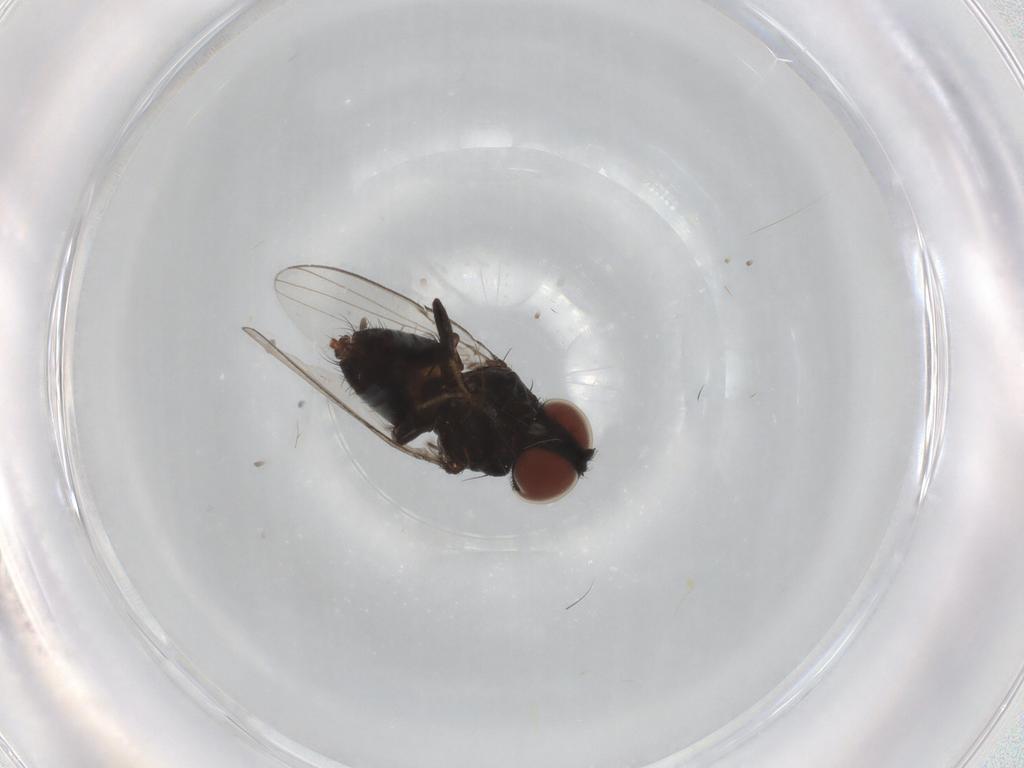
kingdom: Animalia
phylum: Arthropoda
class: Insecta
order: Diptera
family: Milichiidae
